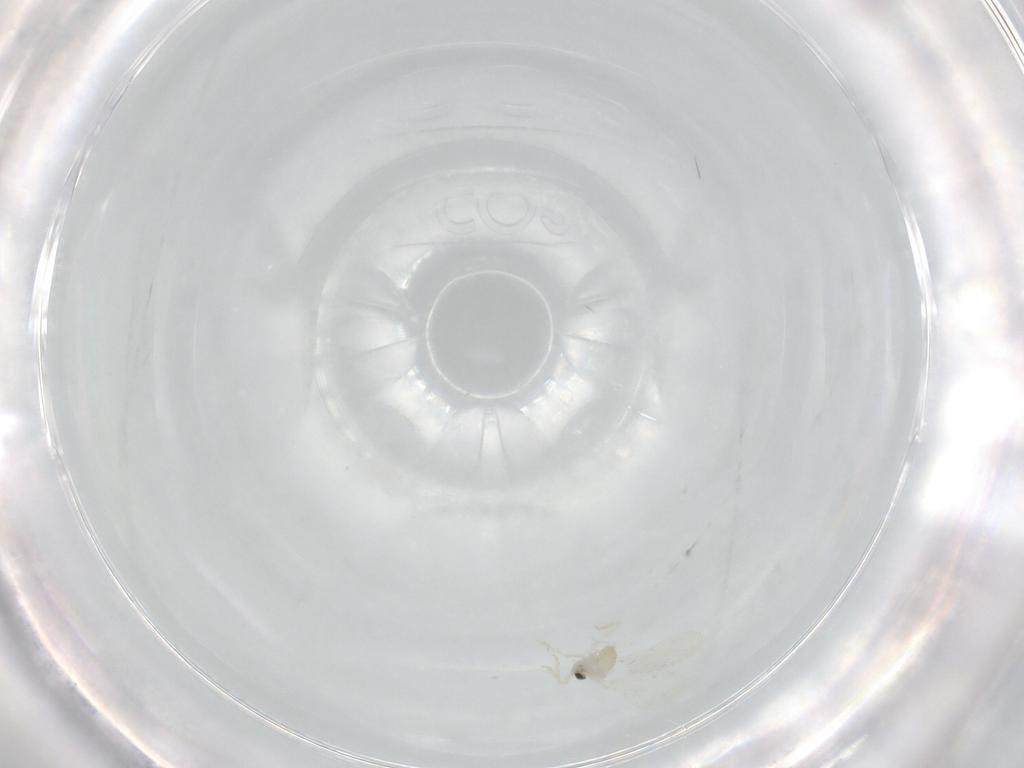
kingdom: Animalia
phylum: Arthropoda
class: Insecta
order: Diptera
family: Cecidomyiidae
